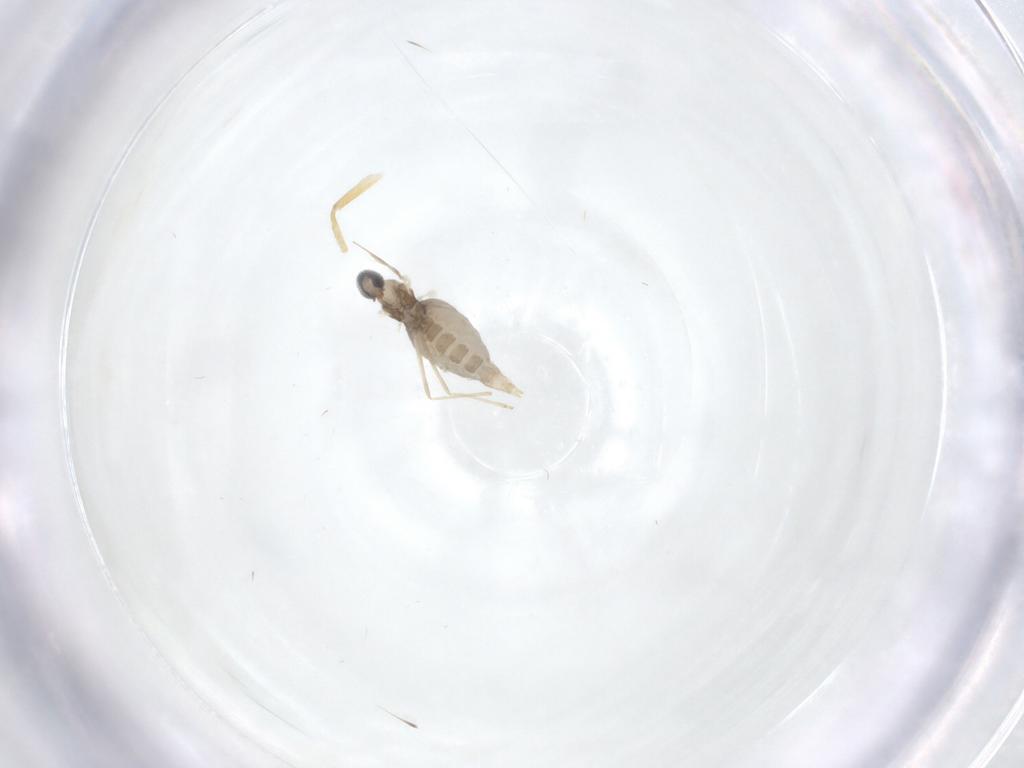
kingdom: Animalia
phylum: Arthropoda
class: Insecta
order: Diptera
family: Cecidomyiidae
